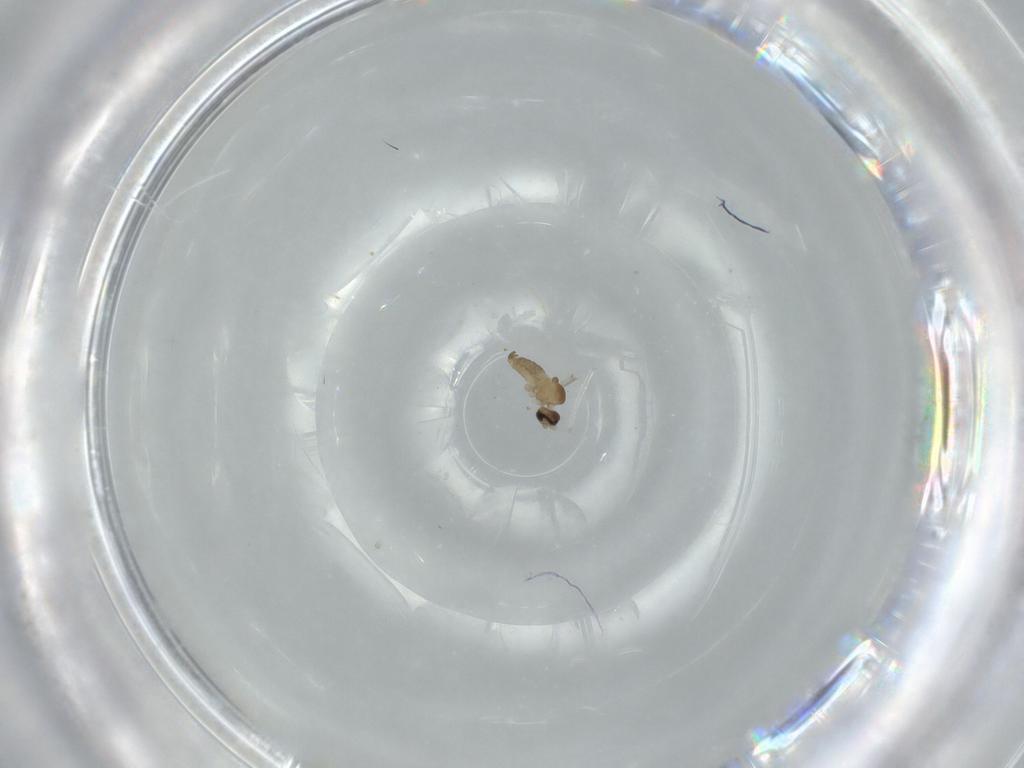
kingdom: Animalia
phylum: Arthropoda
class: Insecta
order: Diptera
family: Cecidomyiidae
